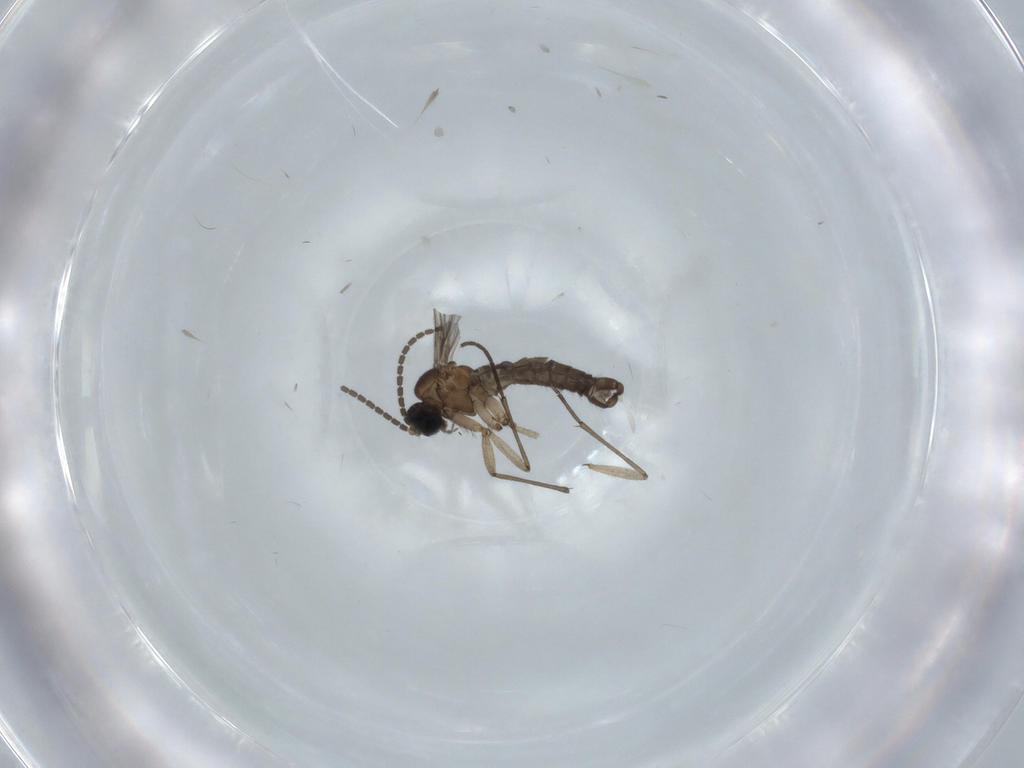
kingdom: Animalia
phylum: Arthropoda
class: Insecta
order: Diptera
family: Sciaridae
